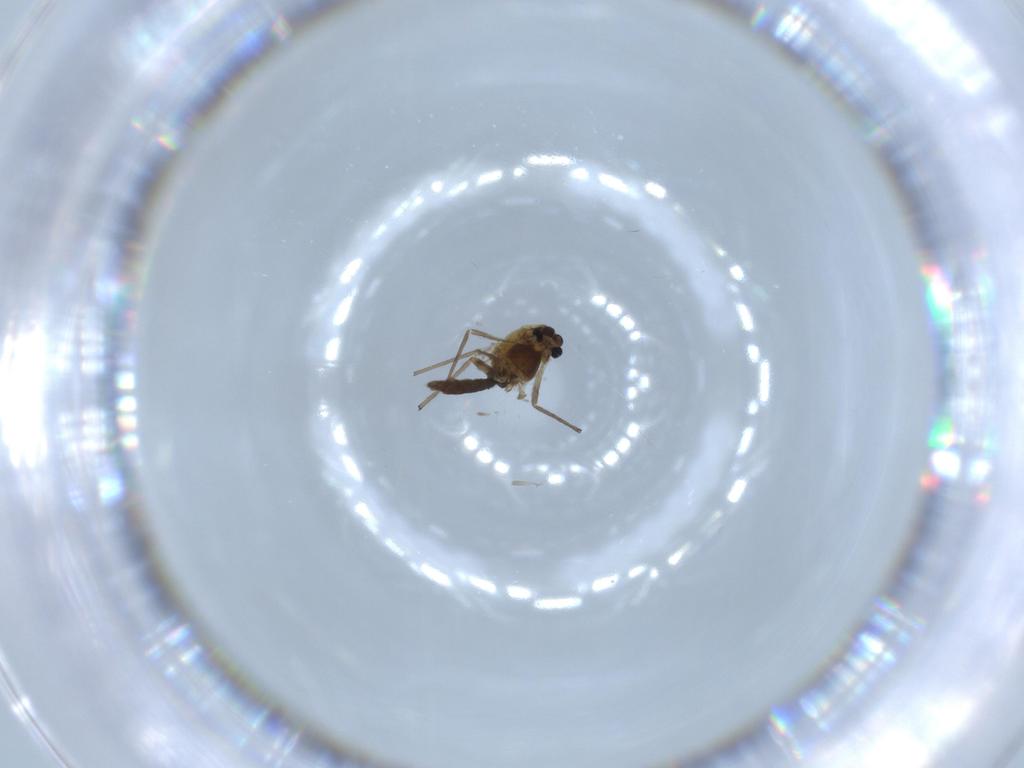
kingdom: Animalia
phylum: Arthropoda
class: Insecta
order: Diptera
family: Chironomidae
